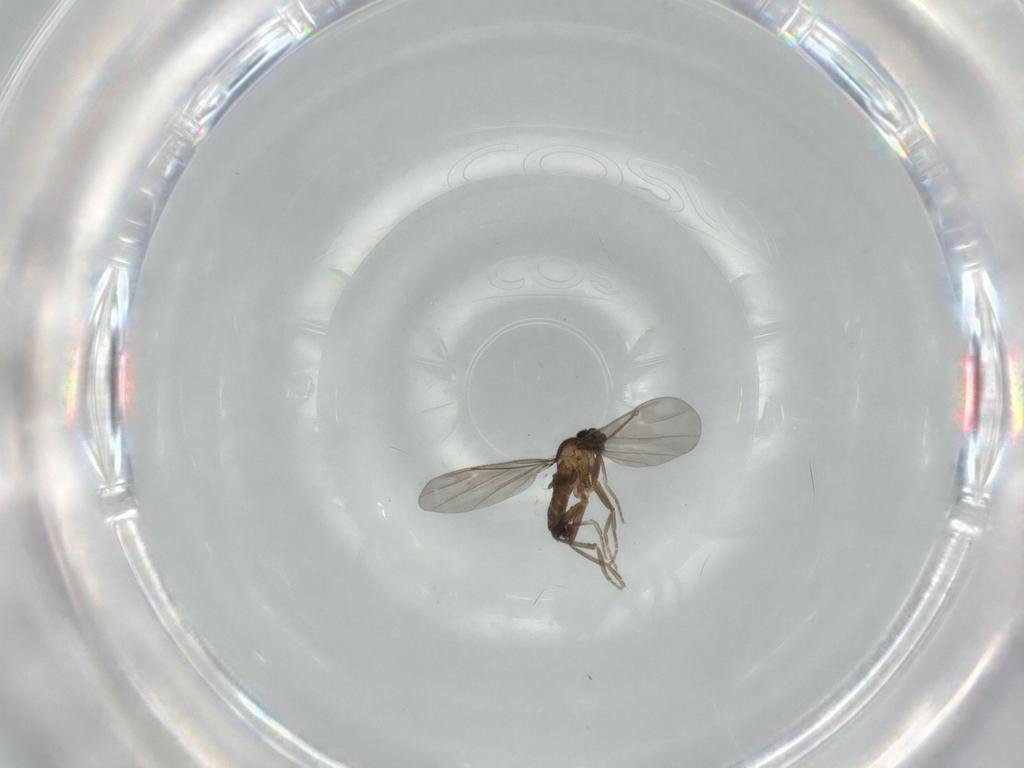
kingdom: Animalia
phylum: Arthropoda
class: Insecta
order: Diptera
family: Phoridae
